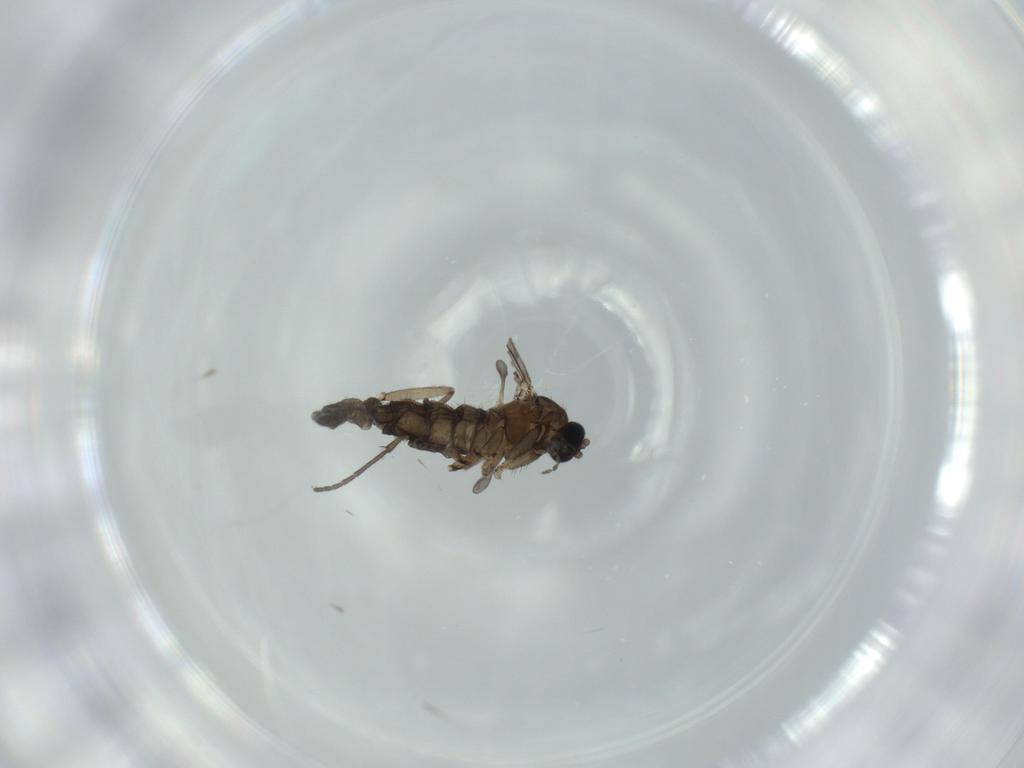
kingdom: Animalia
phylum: Arthropoda
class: Insecta
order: Diptera
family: Sciaridae
